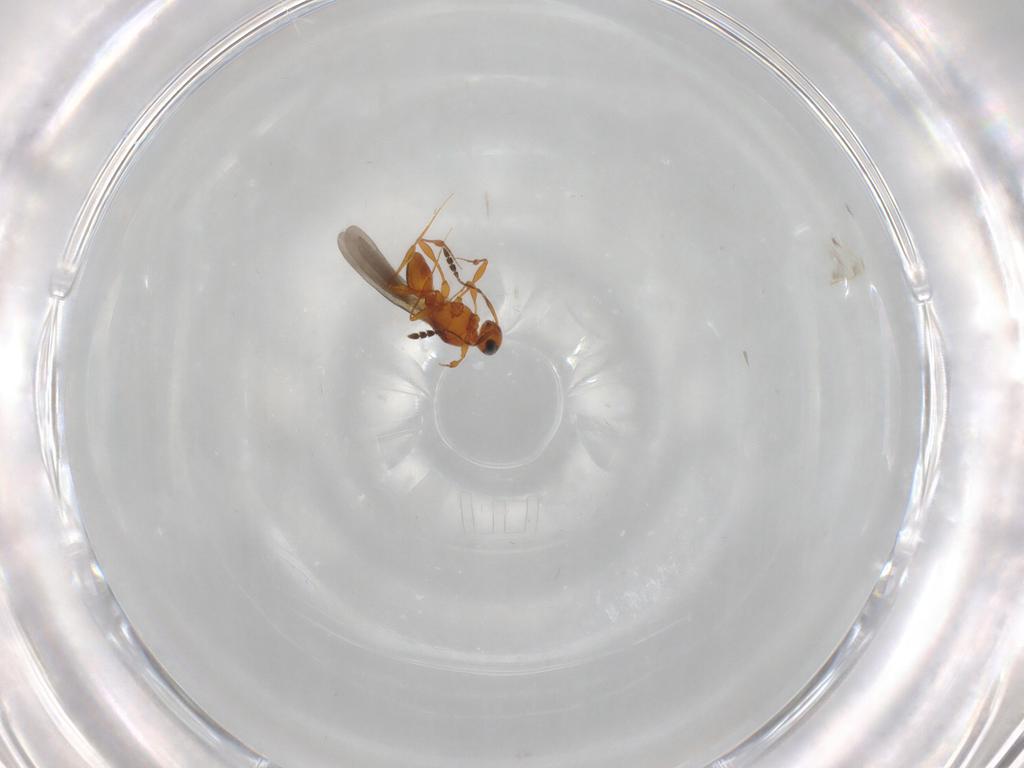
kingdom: Animalia
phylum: Arthropoda
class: Insecta
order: Hymenoptera
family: Platygastridae
